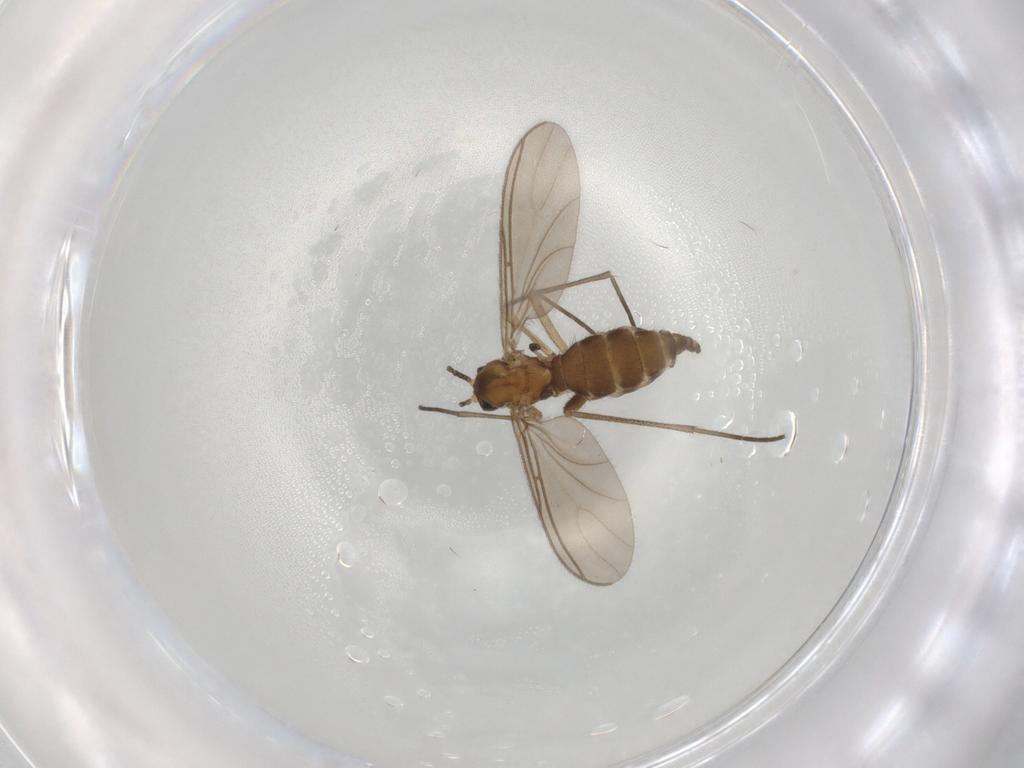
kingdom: Animalia
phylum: Arthropoda
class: Insecta
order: Diptera
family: Sciaridae
